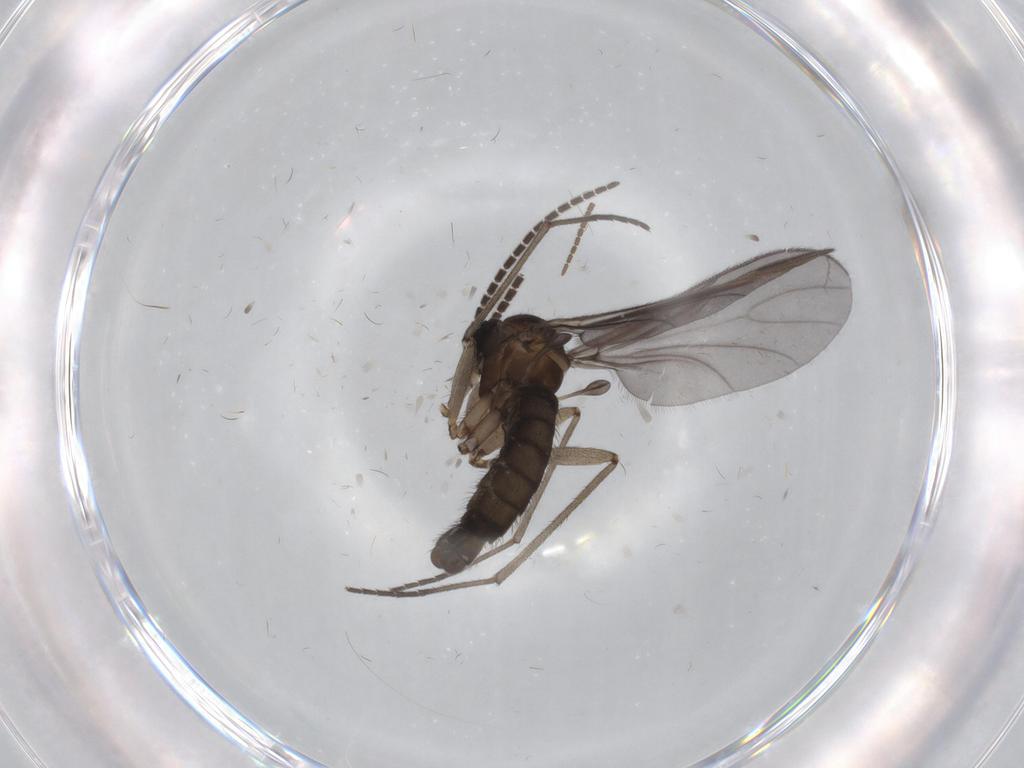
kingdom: Animalia
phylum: Arthropoda
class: Insecta
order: Diptera
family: Sciaridae
